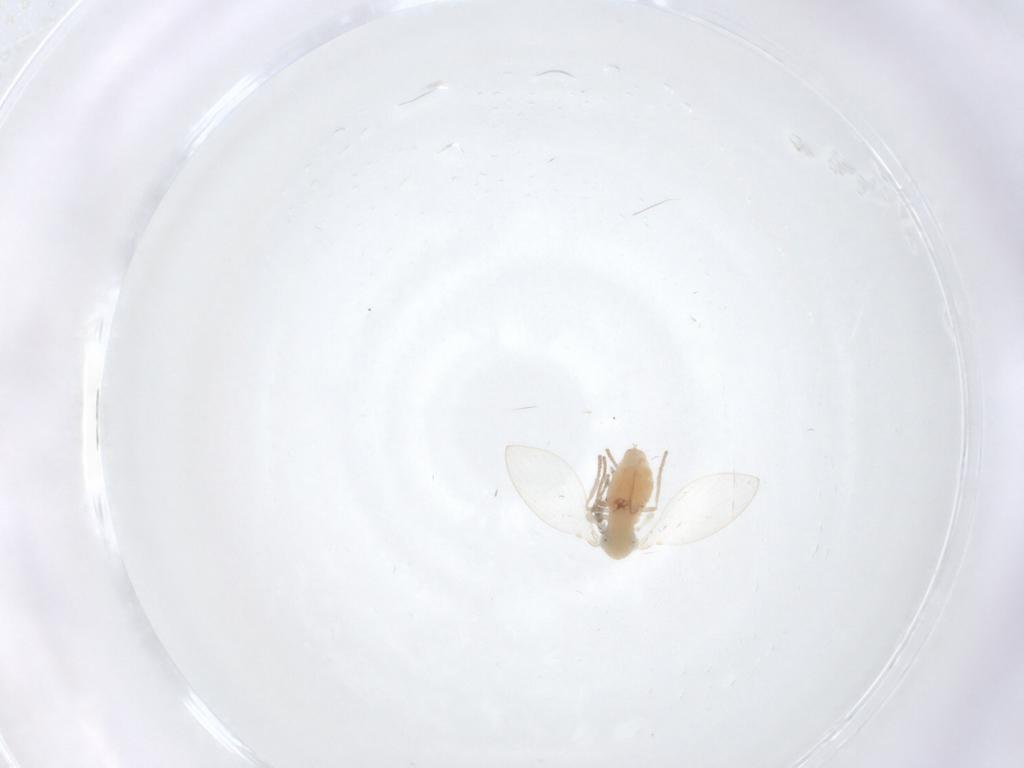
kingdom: Animalia
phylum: Arthropoda
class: Insecta
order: Diptera
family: Psychodidae
